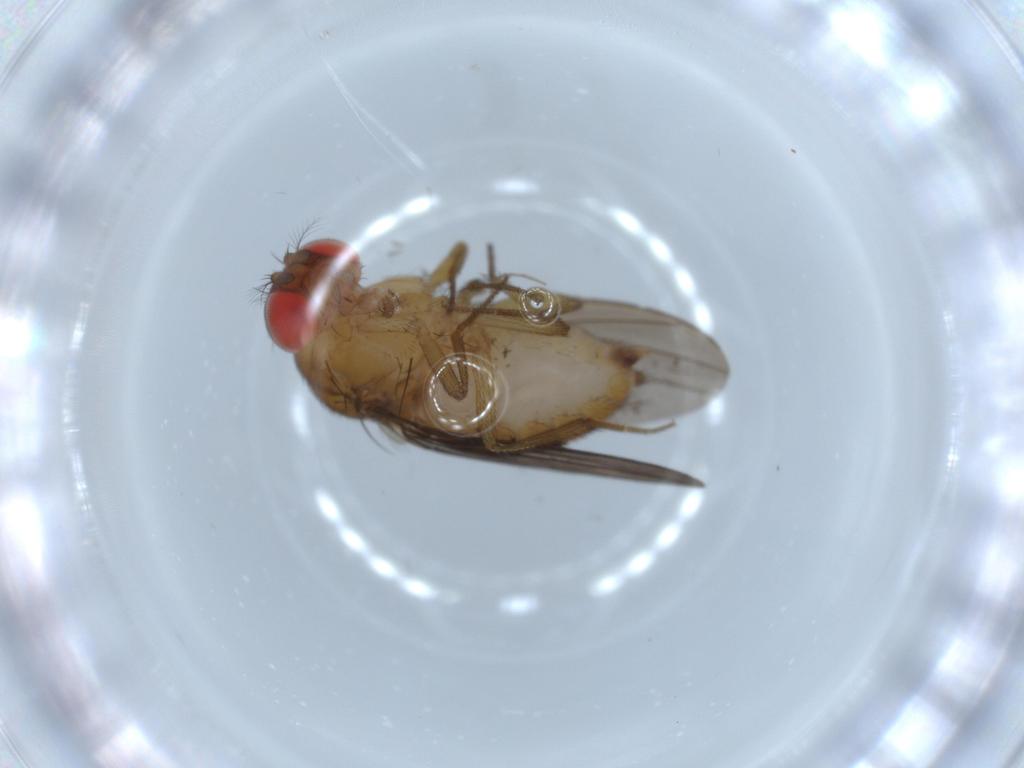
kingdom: Animalia
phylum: Arthropoda
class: Insecta
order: Diptera
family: Drosophilidae
